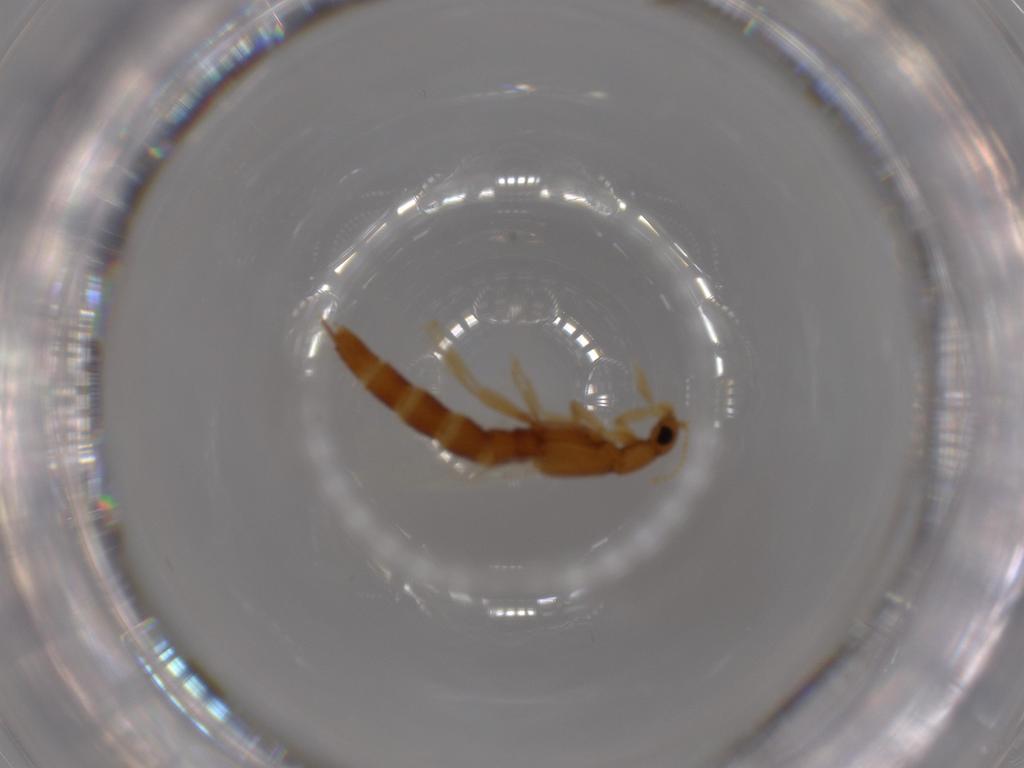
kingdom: Animalia
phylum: Arthropoda
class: Insecta
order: Coleoptera
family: Staphylinidae
